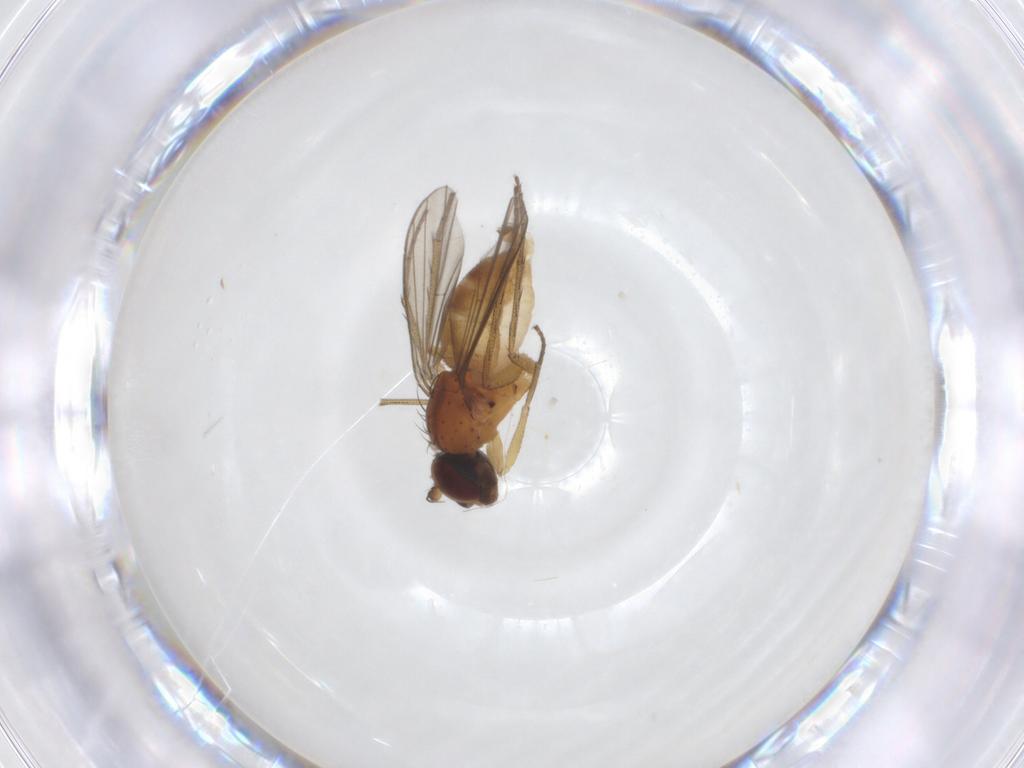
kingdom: Animalia
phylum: Arthropoda
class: Insecta
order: Diptera
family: Dolichopodidae
